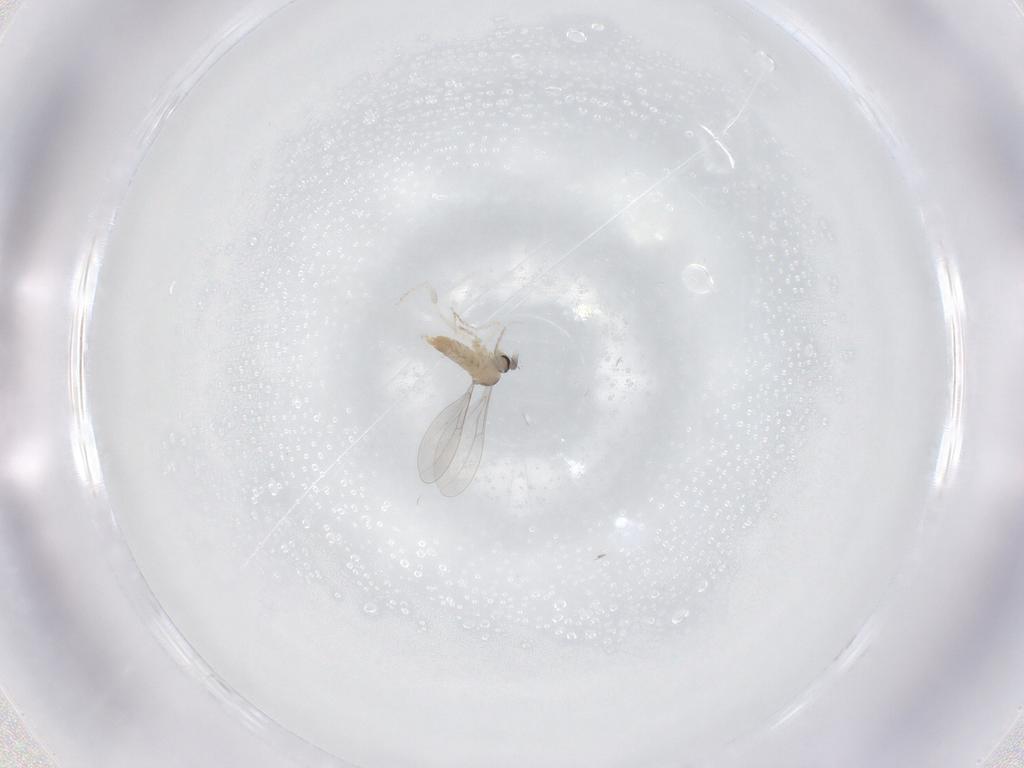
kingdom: Animalia
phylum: Arthropoda
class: Insecta
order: Diptera
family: Cecidomyiidae
